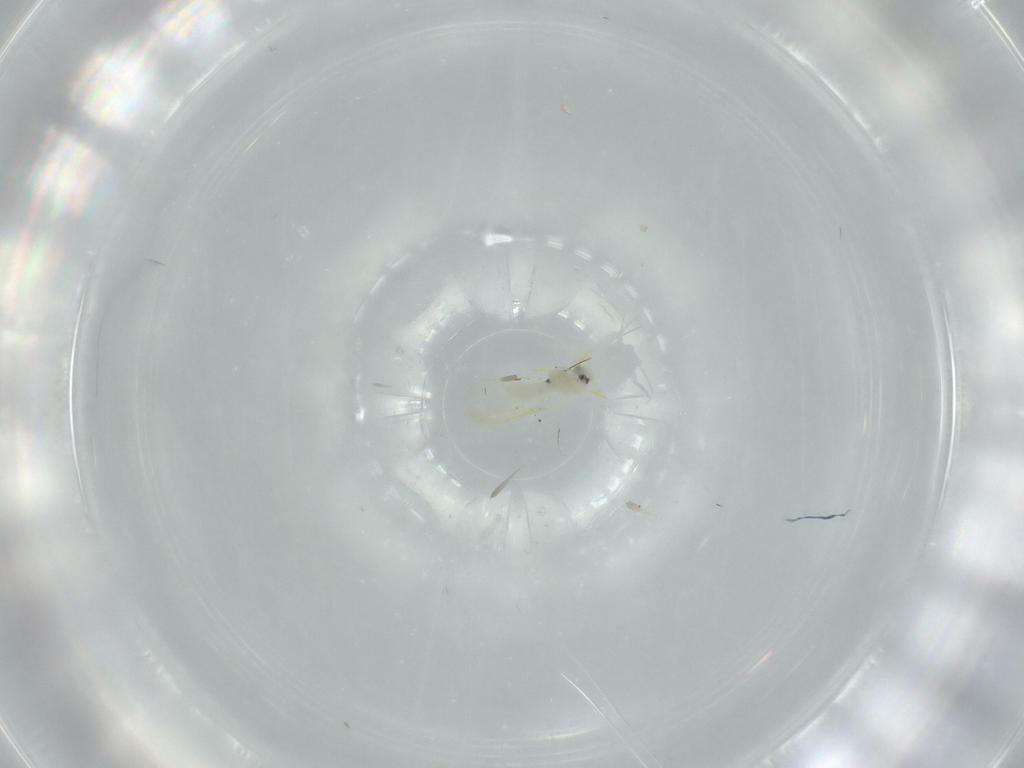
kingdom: Animalia
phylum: Arthropoda
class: Insecta
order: Hemiptera
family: Aleyrodidae
